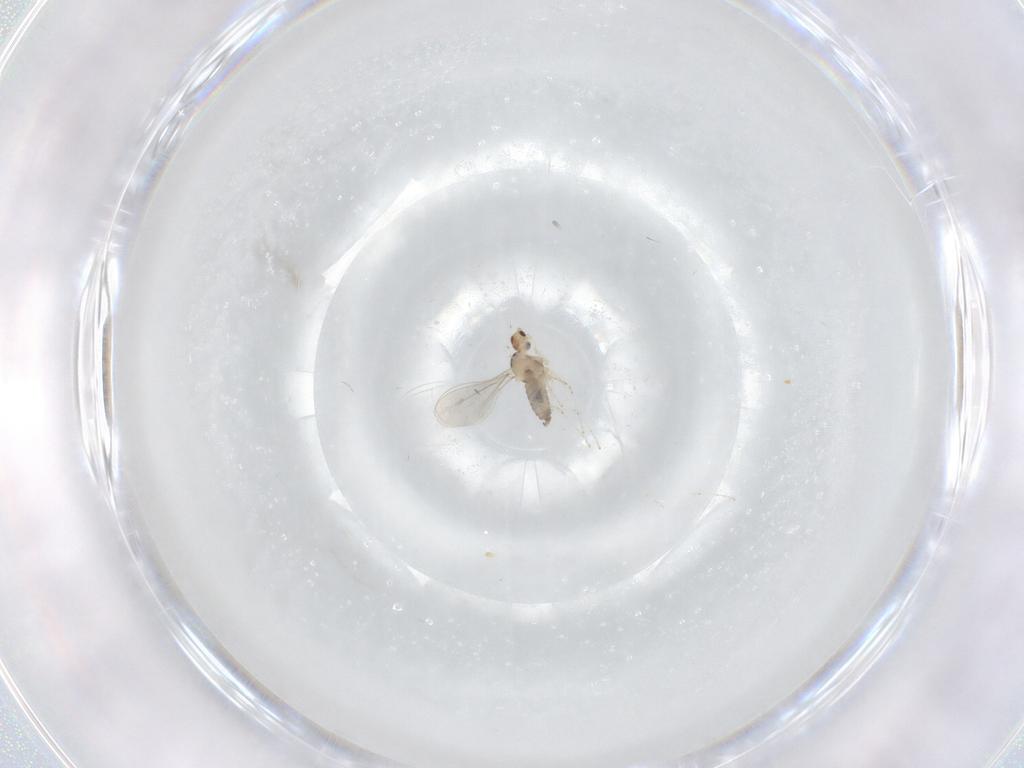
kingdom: Animalia
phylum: Arthropoda
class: Insecta
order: Diptera
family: Cecidomyiidae
